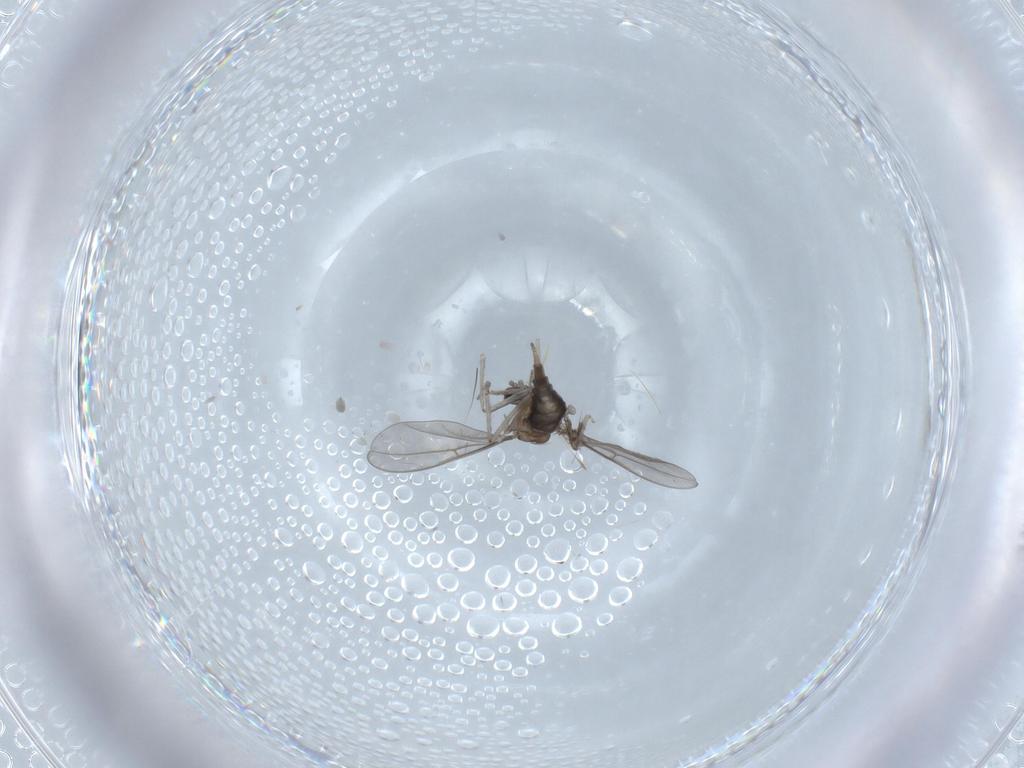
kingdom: Animalia
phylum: Arthropoda
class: Insecta
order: Diptera
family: Cecidomyiidae
